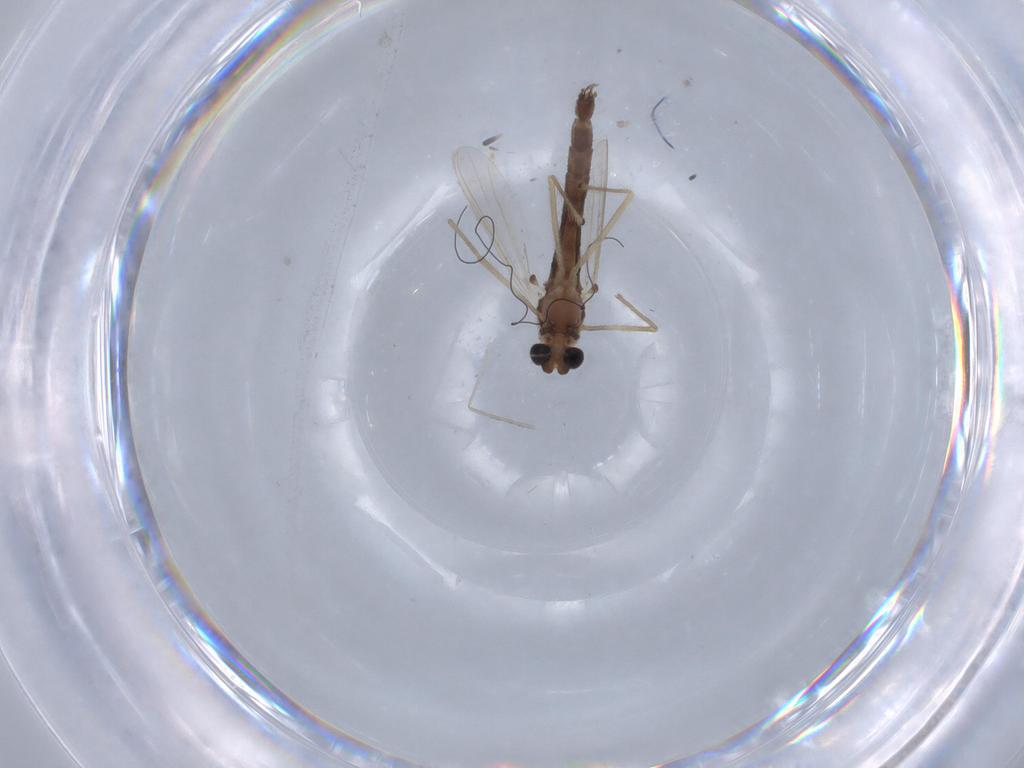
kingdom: Animalia
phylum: Arthropoda
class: Insecta
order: Diptera
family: Chironomidae
